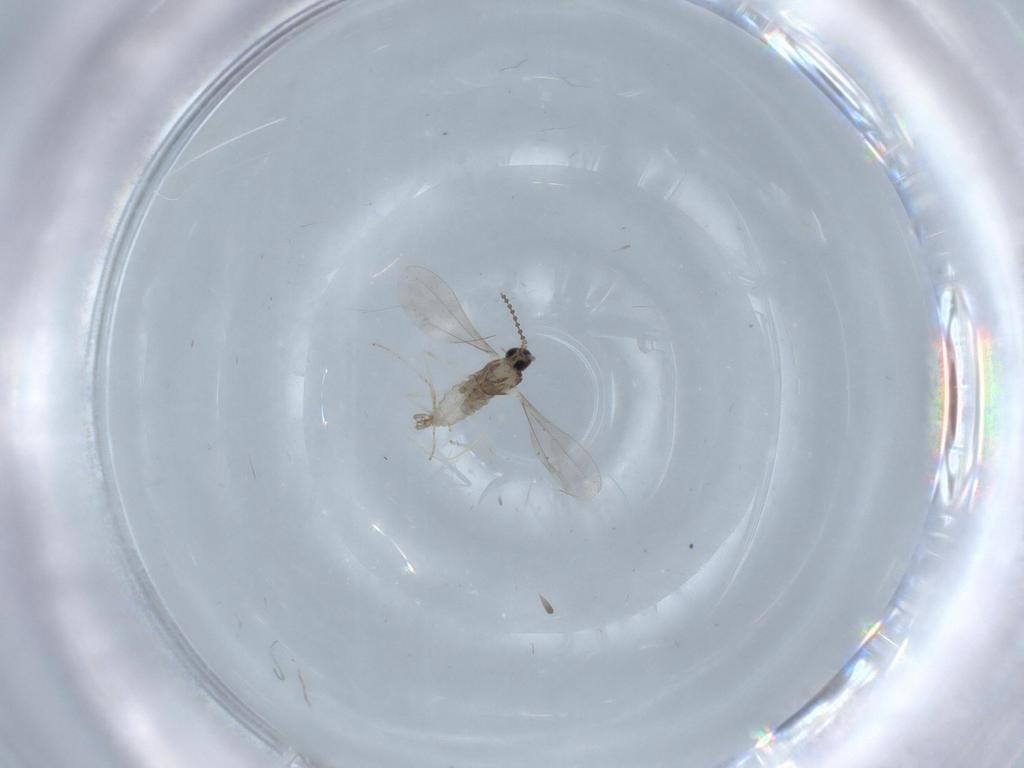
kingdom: Animalia
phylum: Arthropoda
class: Insecta
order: Diptera
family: Cecidomyiidae
